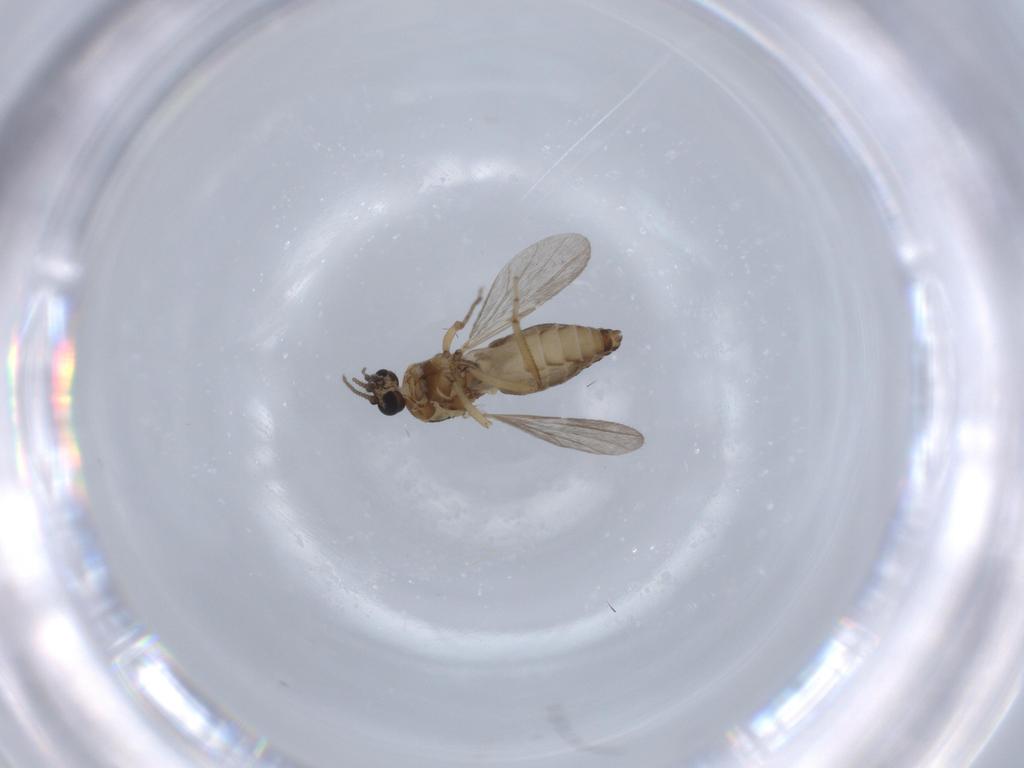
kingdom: Animalia
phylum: Arthropoda
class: Insecta
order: Diptera
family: Ceratopogonidae
